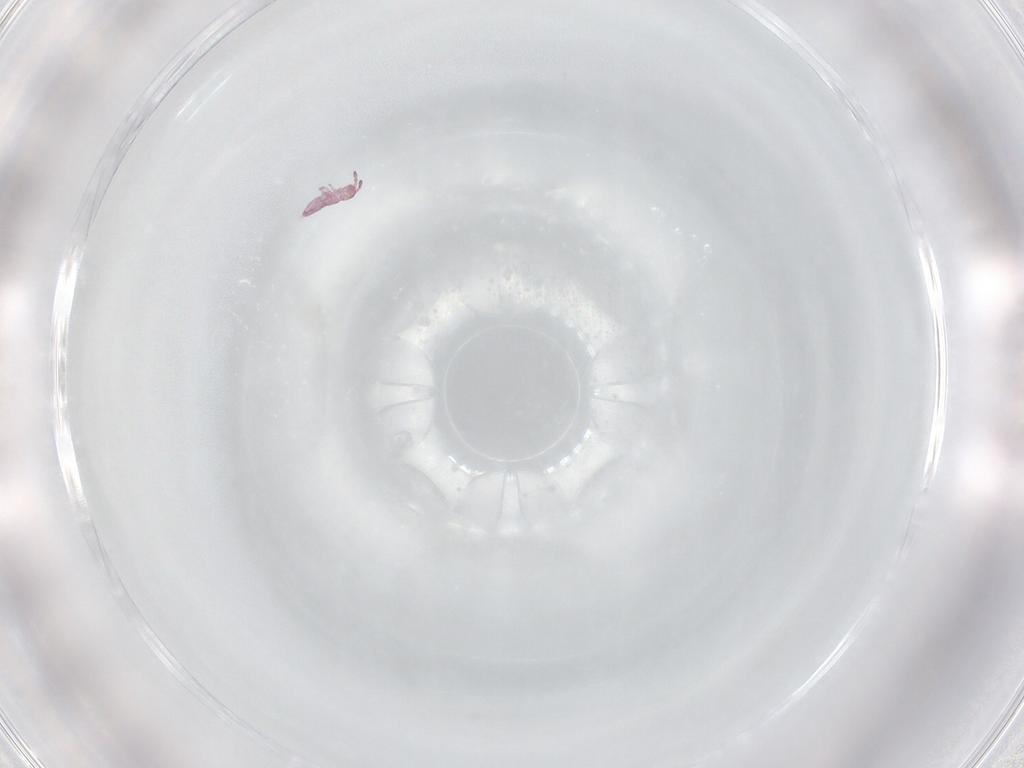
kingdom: Animalia
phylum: Arthropoda
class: Collembola
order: Entomobryomorpha
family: Isotomidae
